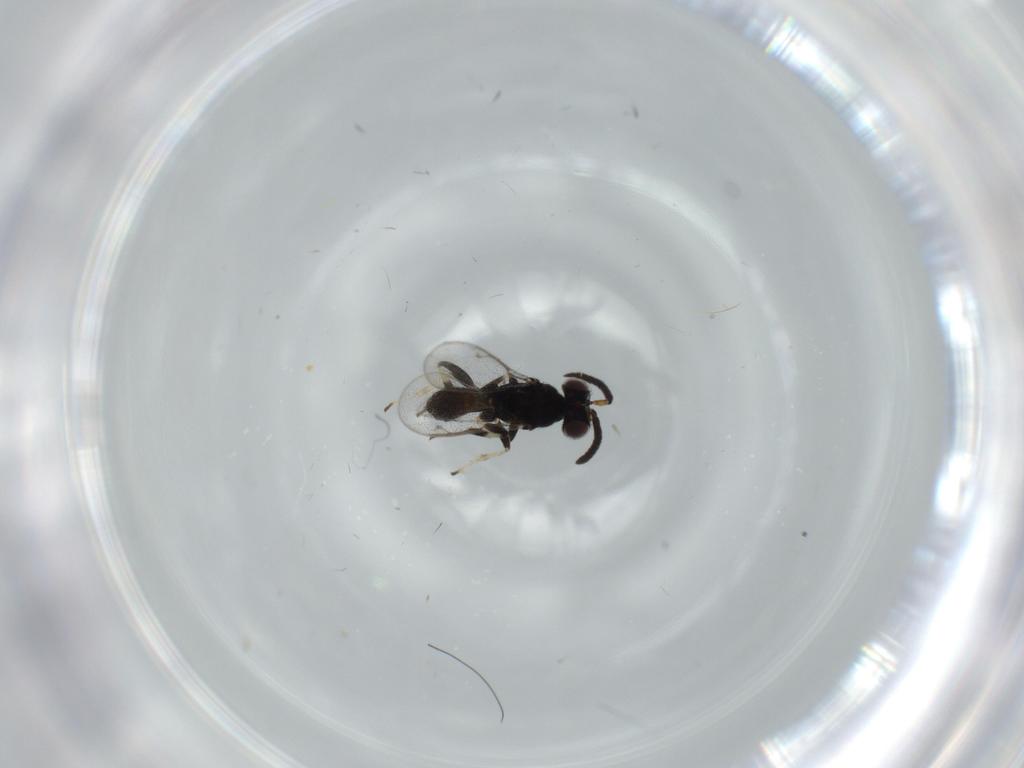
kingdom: Animalia
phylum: Arthropoda
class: Insecta
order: Hymenoptera
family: Eupelmidae
